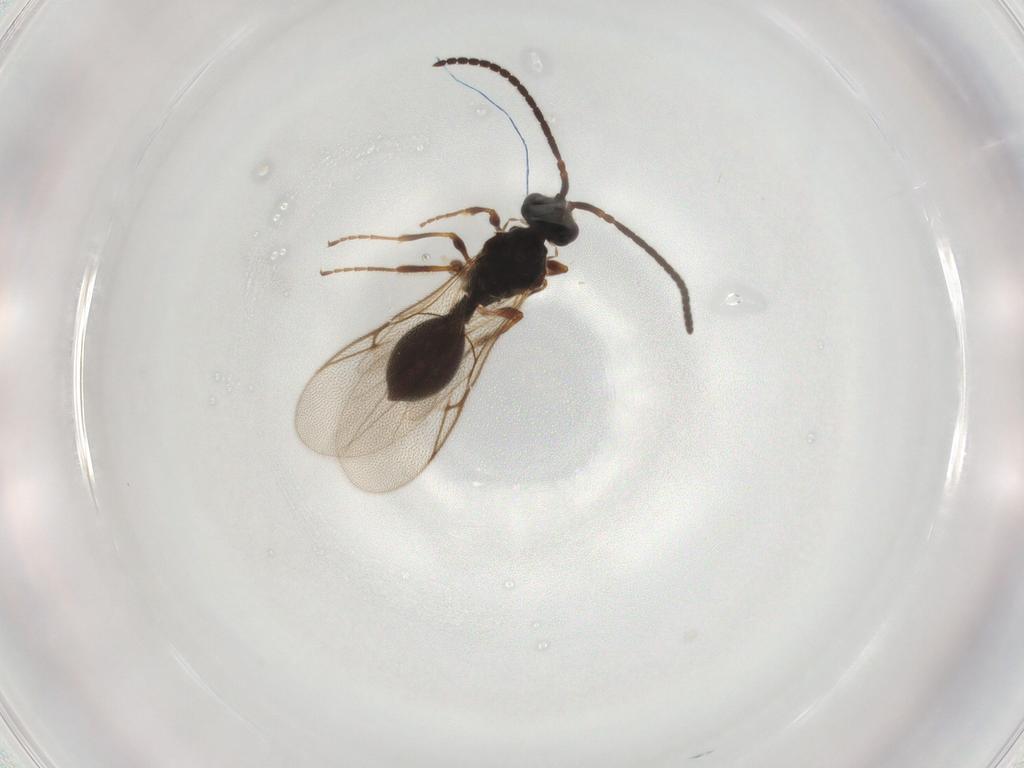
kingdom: Animalia
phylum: Arthropoda
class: Insecta
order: Hymenoptera
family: Diapriidae
